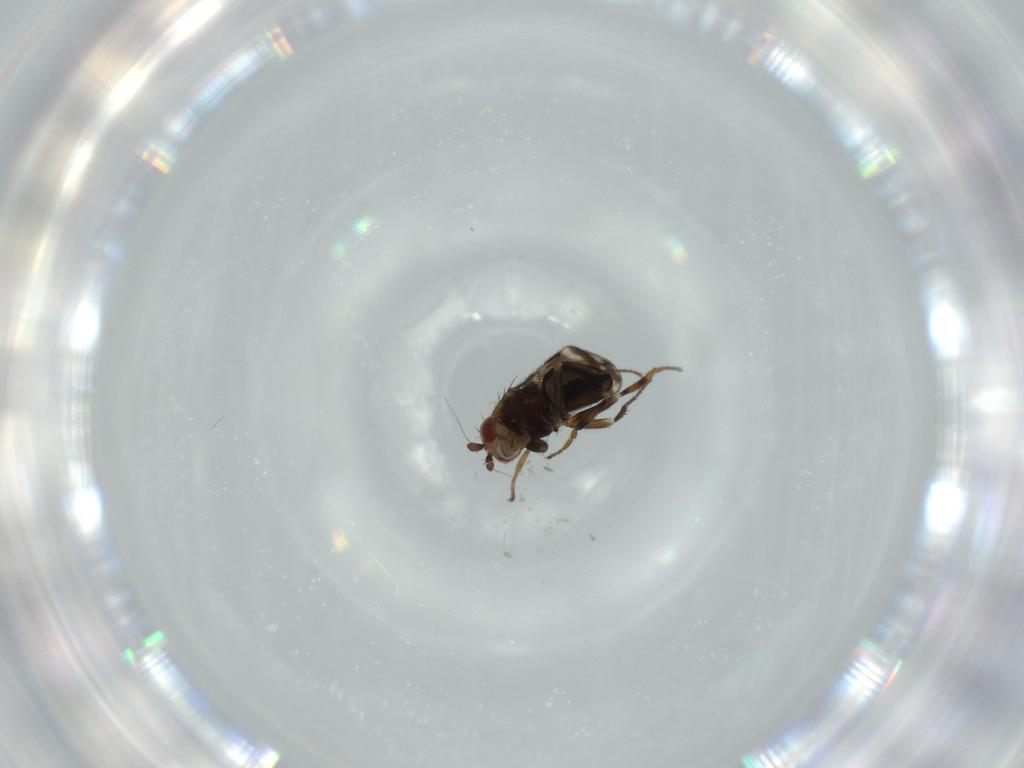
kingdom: Animalia
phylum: Arthropoda
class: Insecta
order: Diptera
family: Sphaeroceridae
